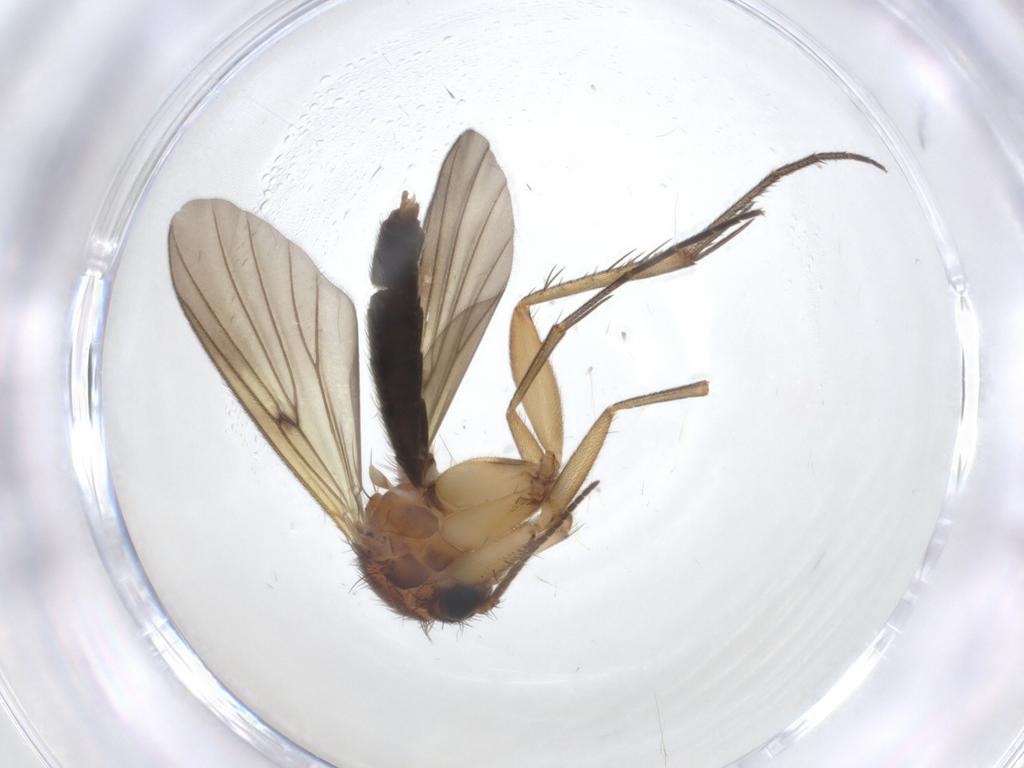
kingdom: Animalia
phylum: Arthropoda
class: Insecta
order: Diptera
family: Mycetophilidae
